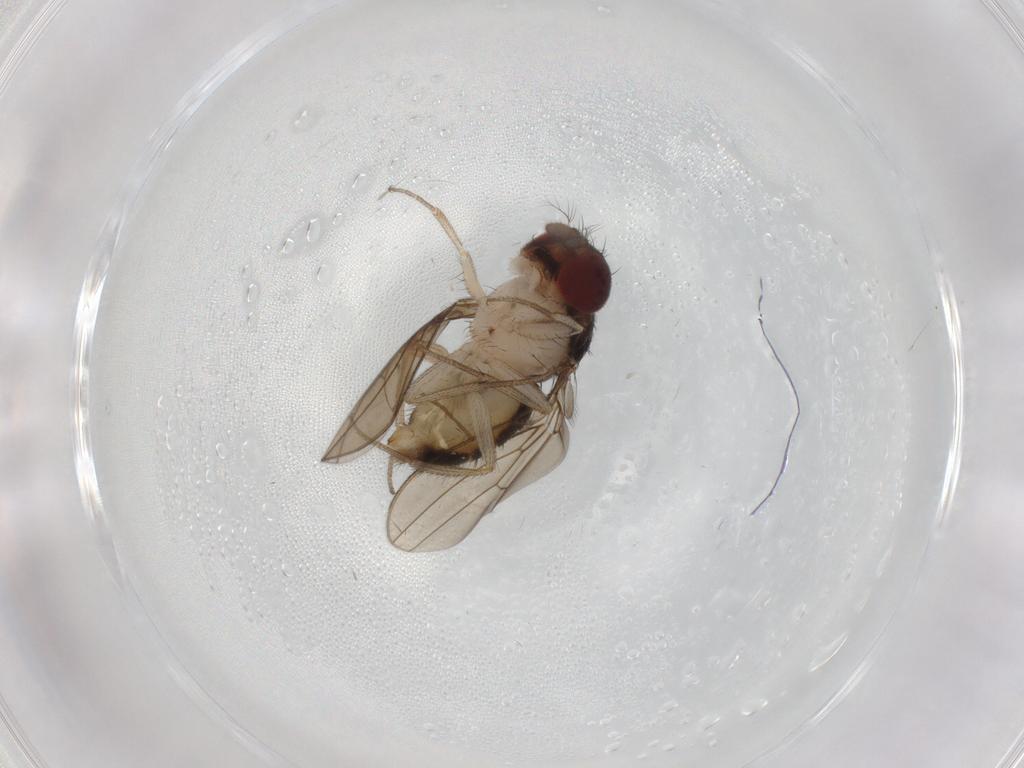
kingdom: Animalia
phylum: Arthropoda
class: Insecta
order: Diptera
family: Drosophilidae
